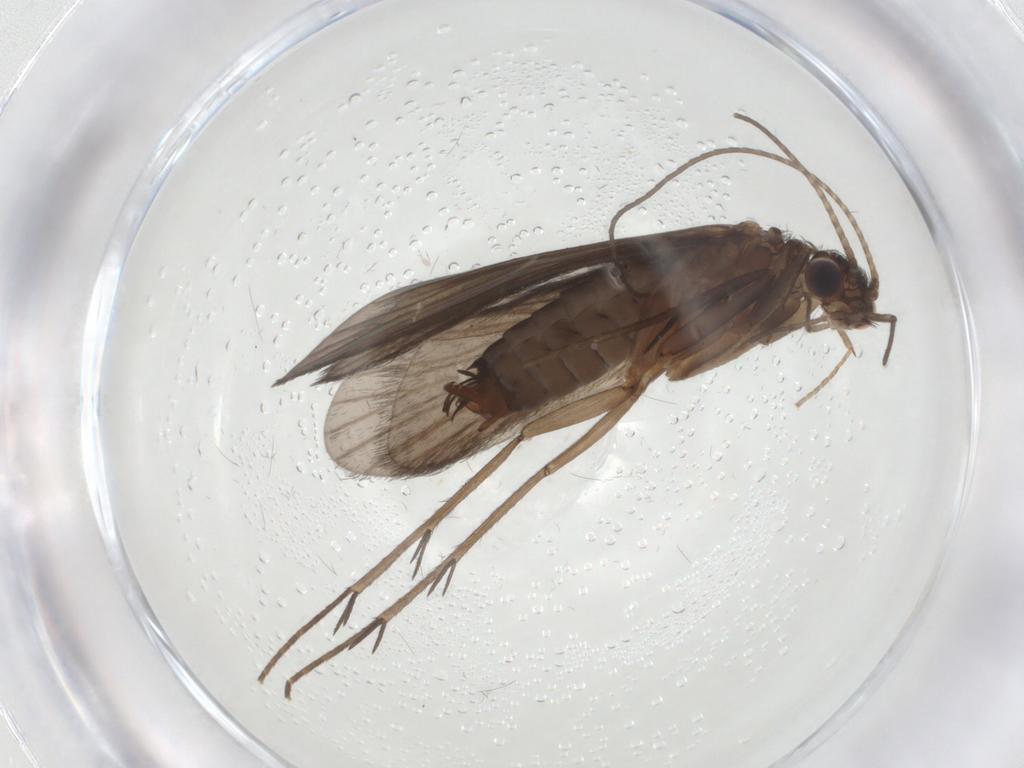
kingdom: Animalia
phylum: Arthropoda
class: Insecta
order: Trichoptera
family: Philopotamidae
